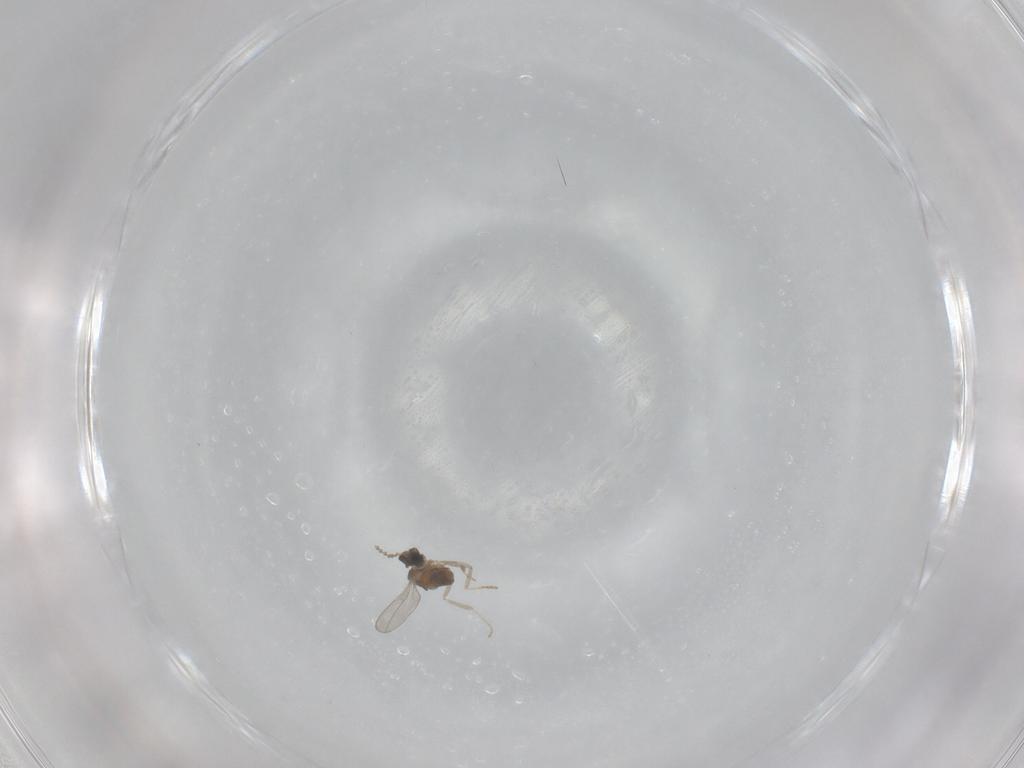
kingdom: Animalia
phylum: Arthropoda
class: Insecta
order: Diptera
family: Cecidomyiidae
